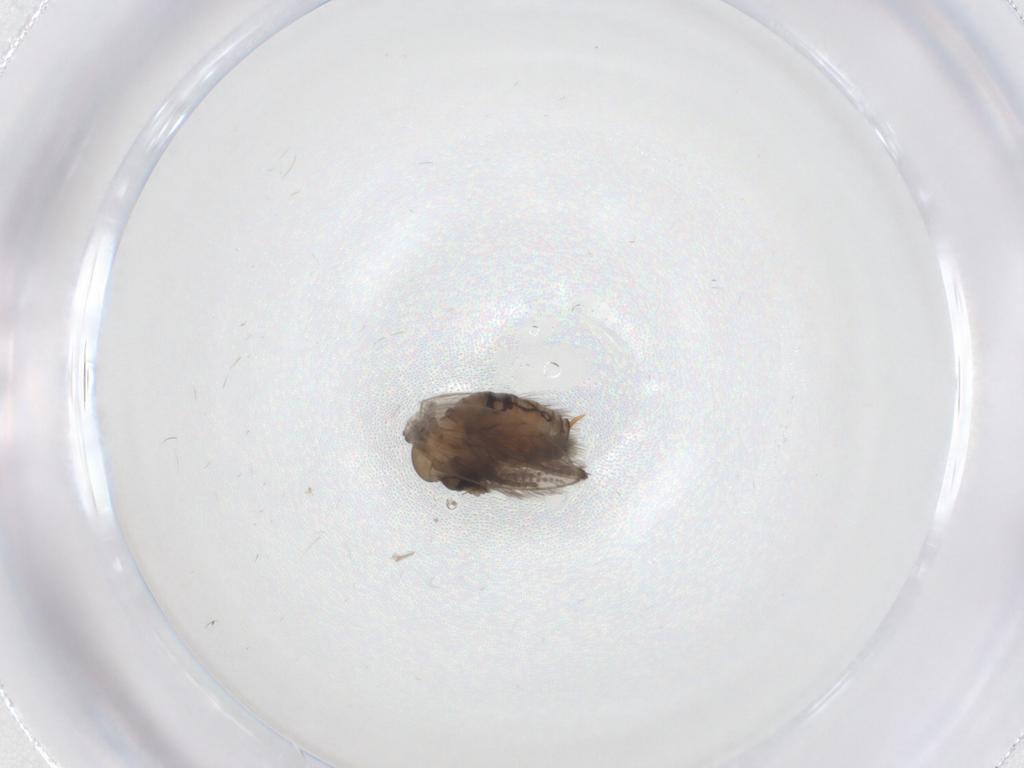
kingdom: Animalia
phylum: Arthropoda
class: Insecta
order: Diptera
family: Psychodidae
